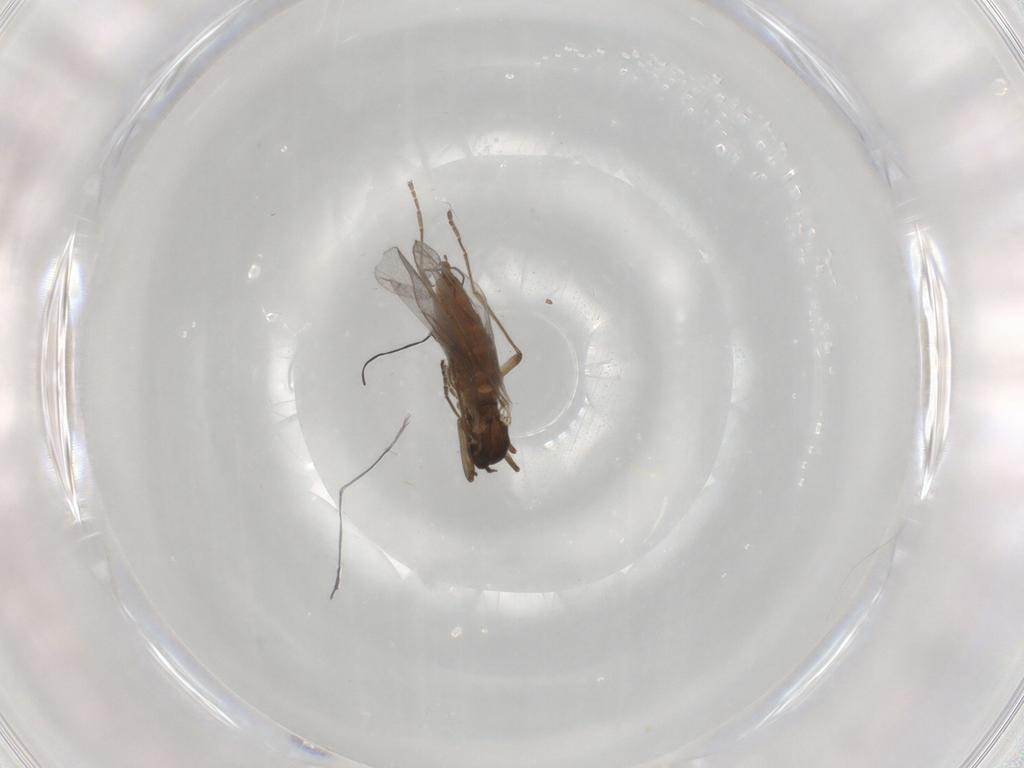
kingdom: Animalia
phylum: Arthropoda
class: Insecta
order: Diptera
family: Cecidomyiidae
